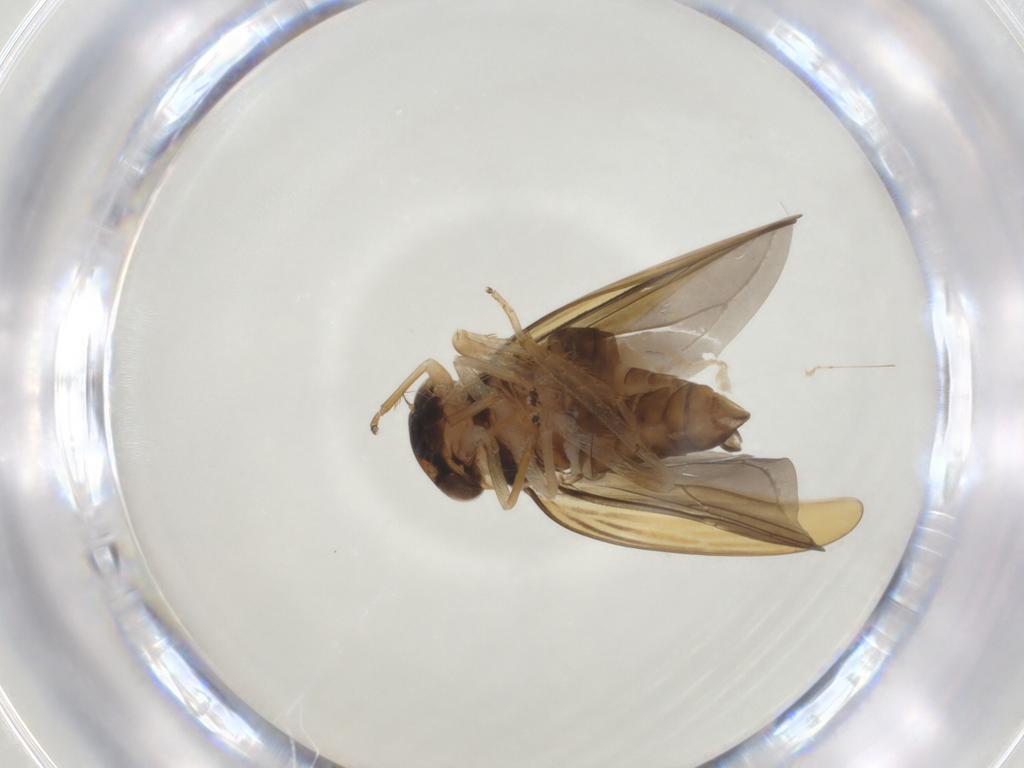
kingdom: Animalia
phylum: Arthropoda
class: Insecta
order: Hemiptera
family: Cicadellidae
